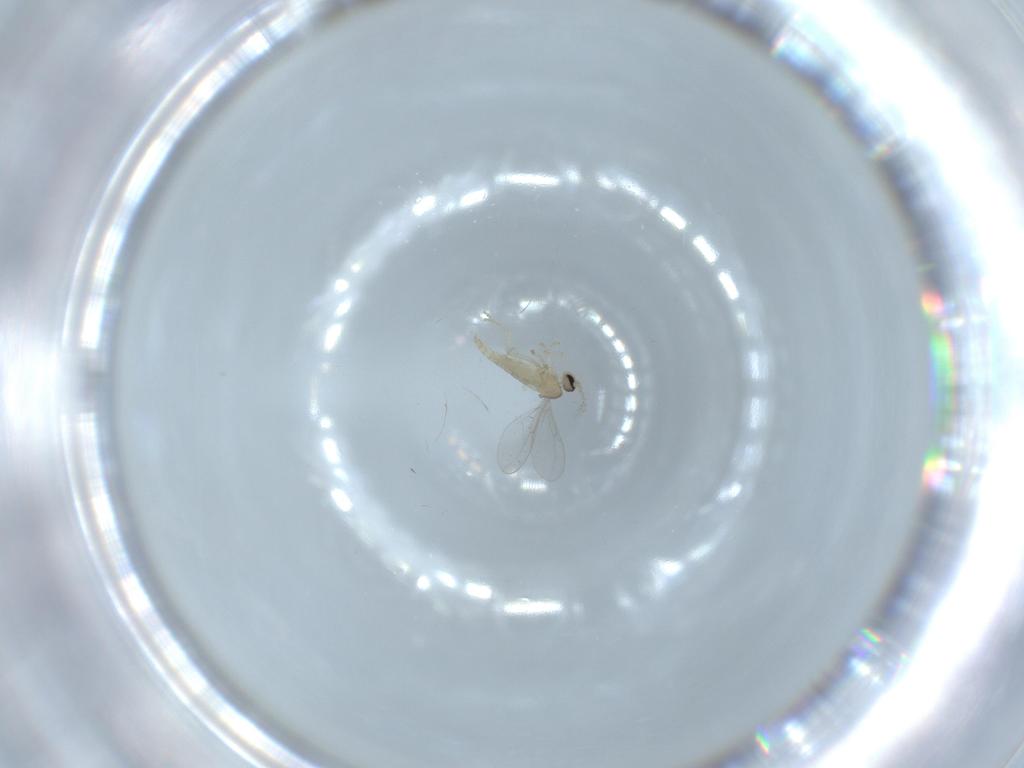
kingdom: Animalia
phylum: Arthropoda
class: Insecta
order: Diptera
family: Cecidomyiidae
